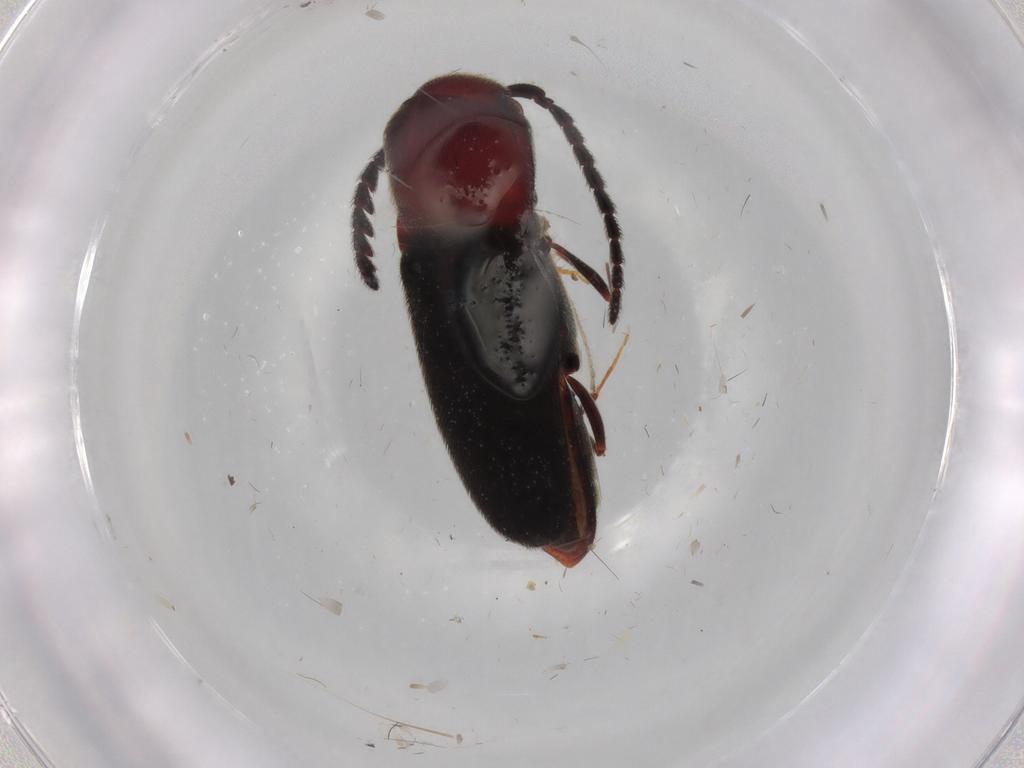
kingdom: Animalia
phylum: Arthropoda
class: Insecta
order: Coleoptera
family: Eucnemidae
